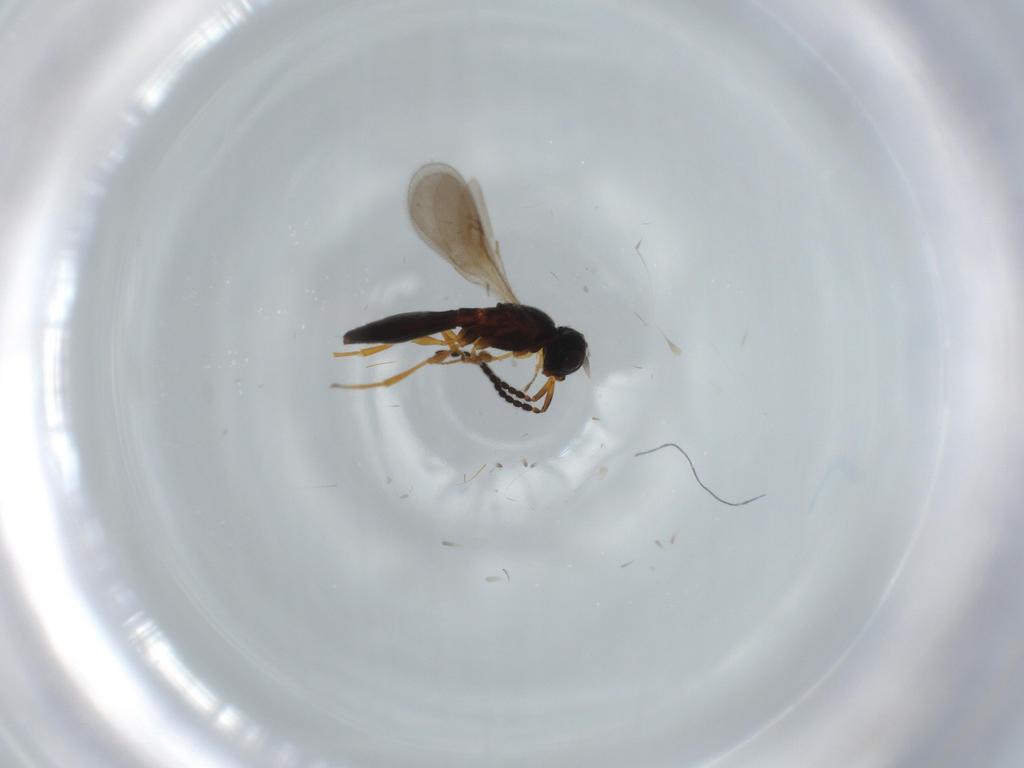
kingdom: Animalia
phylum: Arthropoda
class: Insecta
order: Hymenoptera
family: Scelionidae
